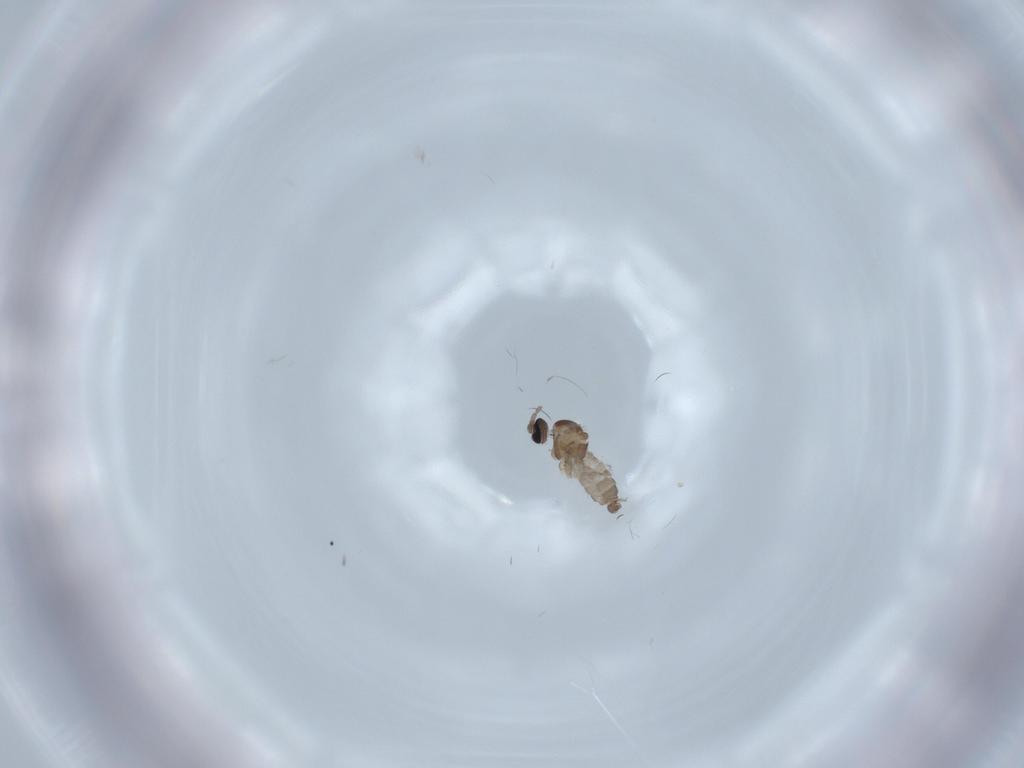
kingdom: Animalia
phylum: Arthropoda
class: Insecta
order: Diptera
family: Cecidomyiidae
